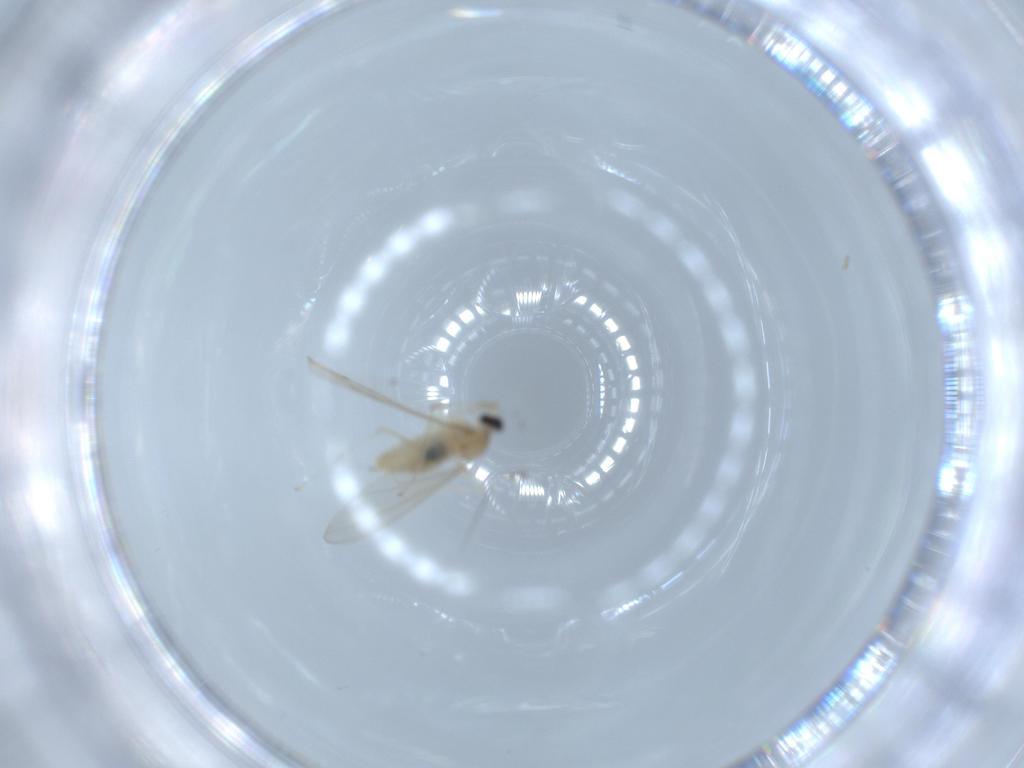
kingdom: Animalia
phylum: Arthropoda
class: Insecta
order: Diptera
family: Cecidomyiidae
